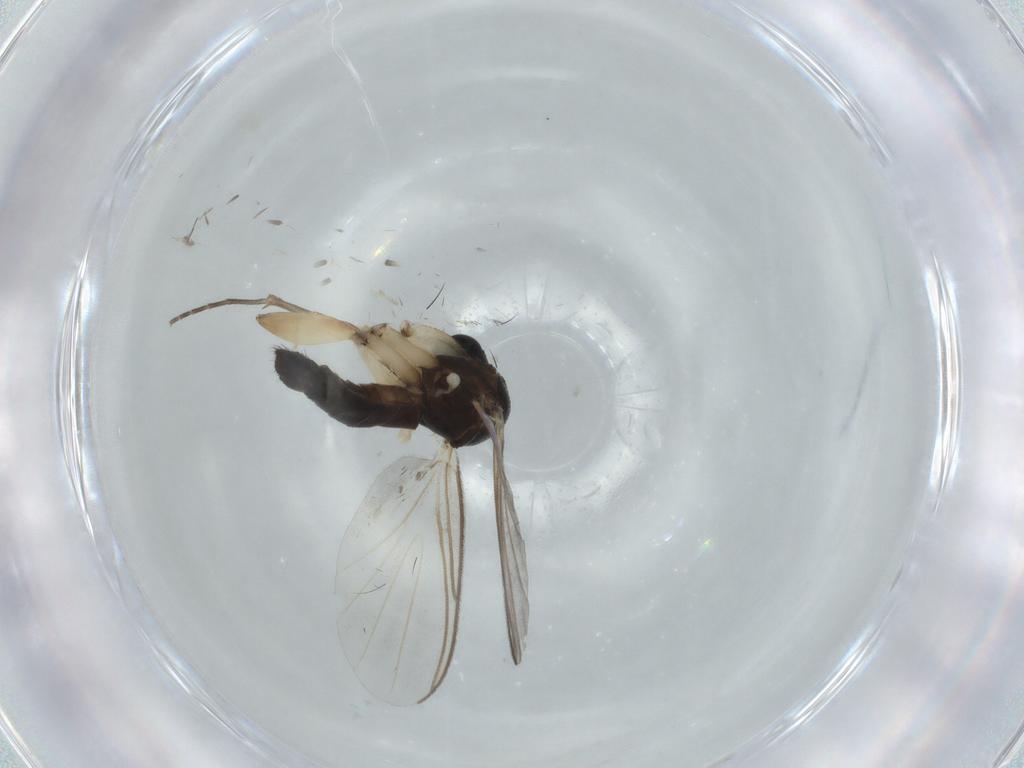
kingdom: Animalia
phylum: Arthropoda
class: Insecta
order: Diptera
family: Mycetophilidae
